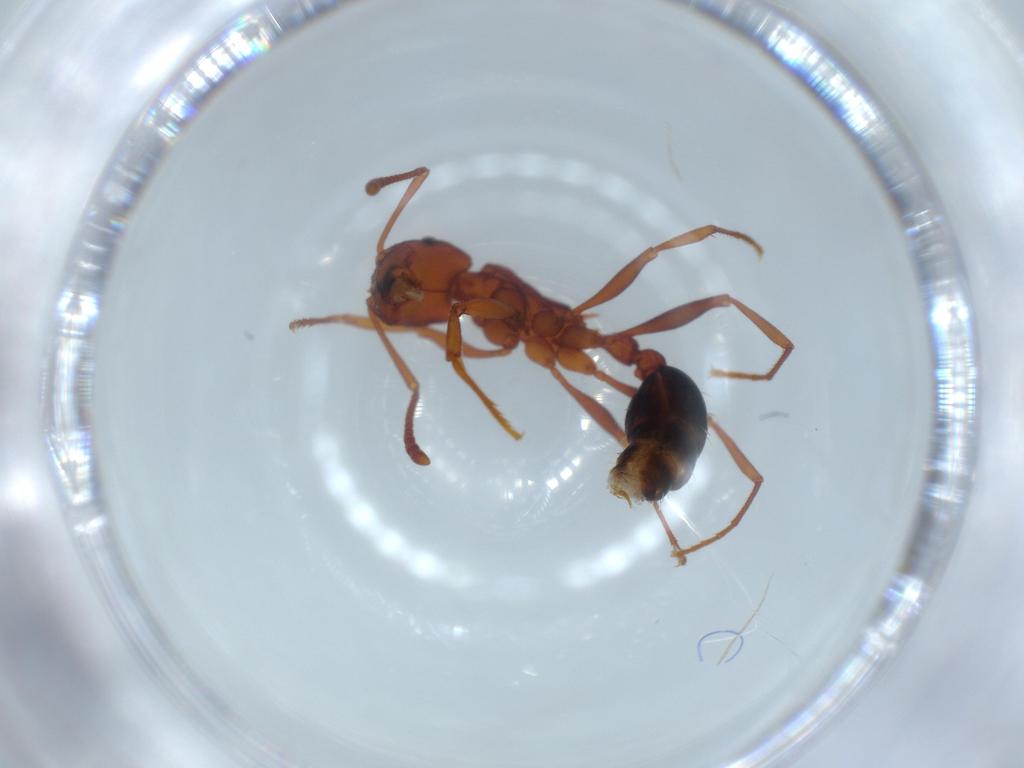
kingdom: Animalia
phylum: Arthropoda
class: Insecta
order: Hymenoptera
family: Formicidae
